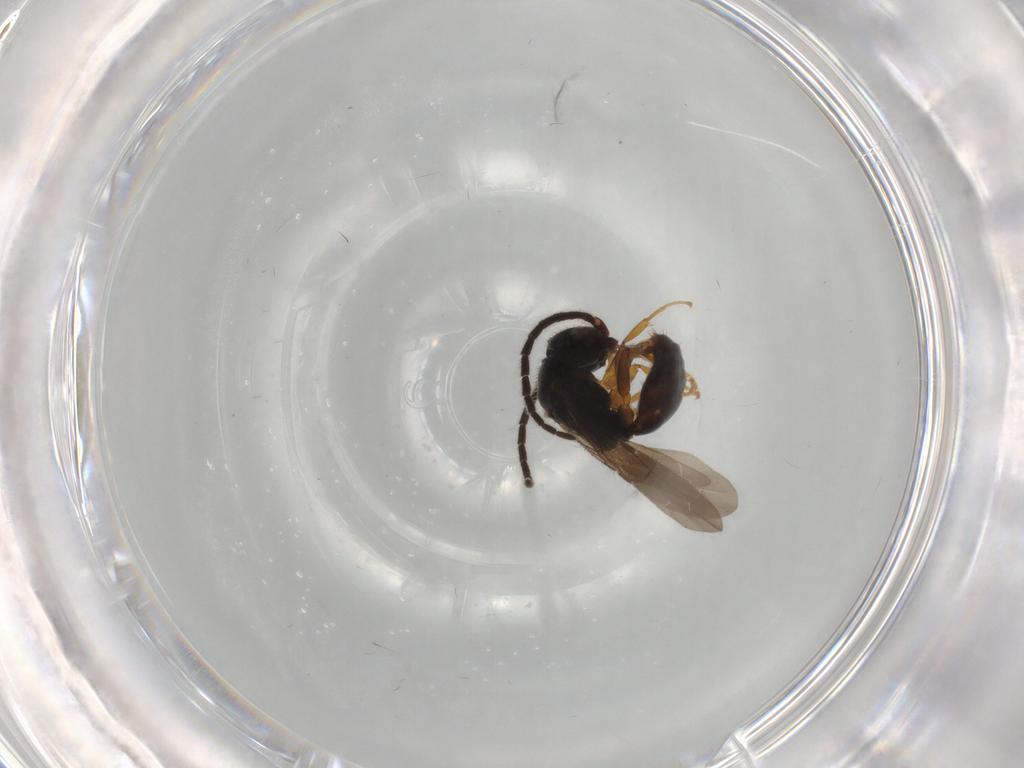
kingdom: Animalia
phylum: Arthropoda
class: Insecta
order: Hymenoptera
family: Bethylidae
